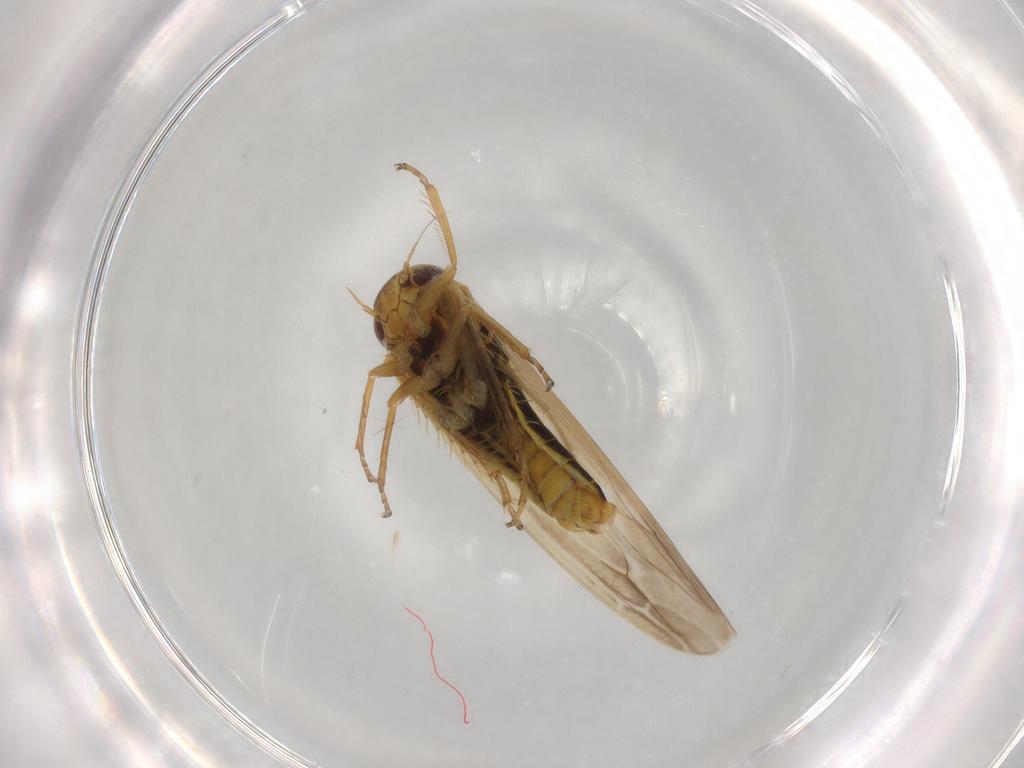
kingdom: Animalia
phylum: Arthropoda
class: Insecta
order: Hemiptera
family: Cicadellidae
